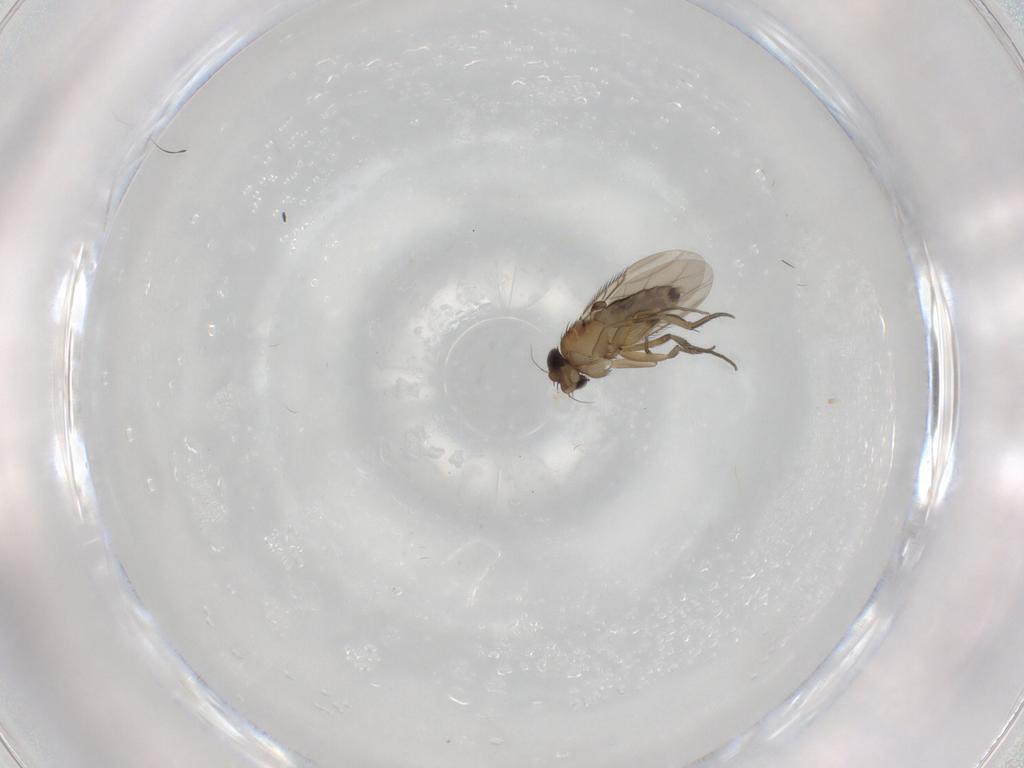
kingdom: Animalia
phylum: Arthropoda
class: Insecta
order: Diptera
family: Phoridae
